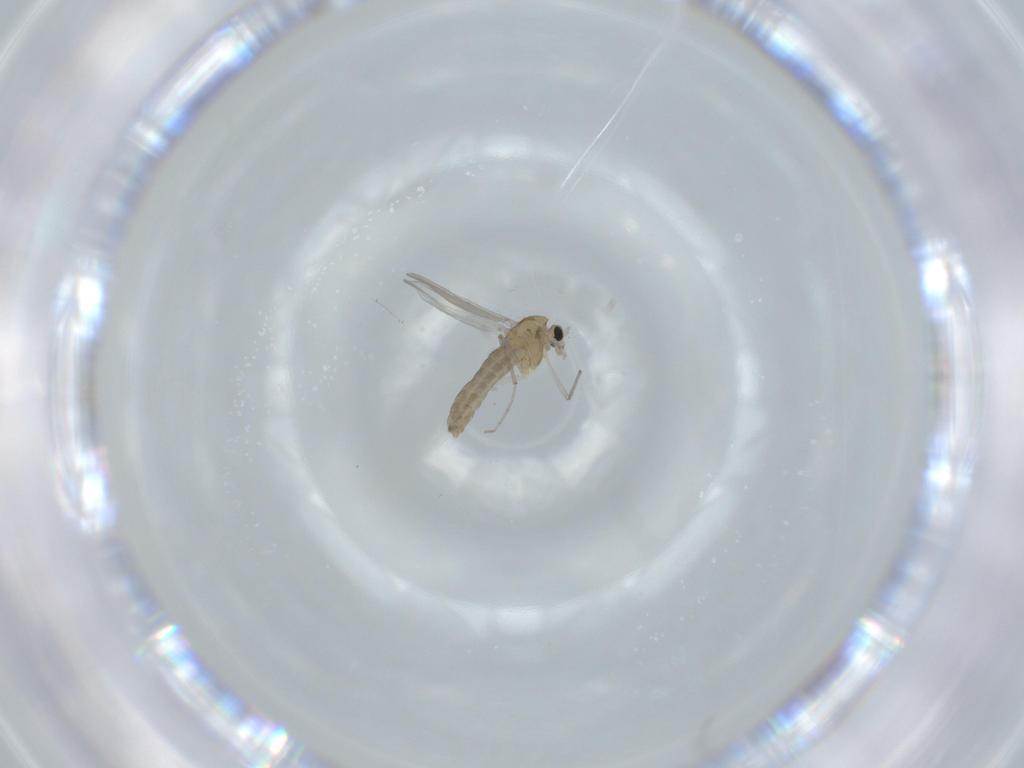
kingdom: Animalia
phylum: Arthropoda
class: Insecta
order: Diptera
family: Chironomidae
